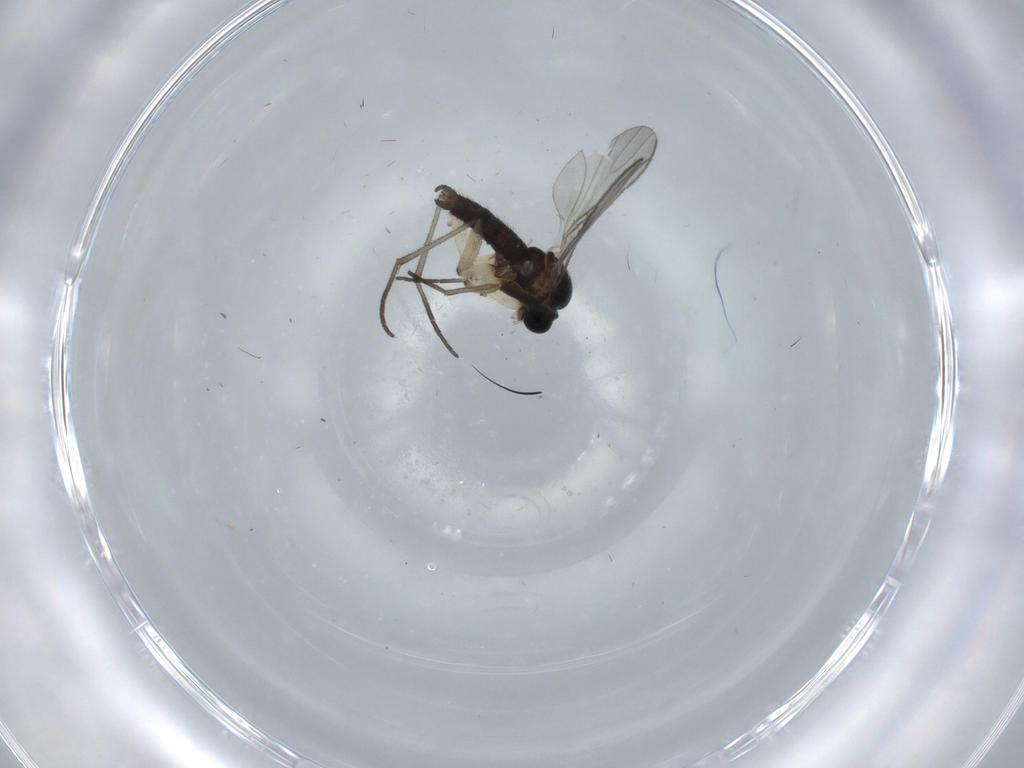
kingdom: Animalia
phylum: Arthropoda
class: Insecta
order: Diptera
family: Sciaridae
